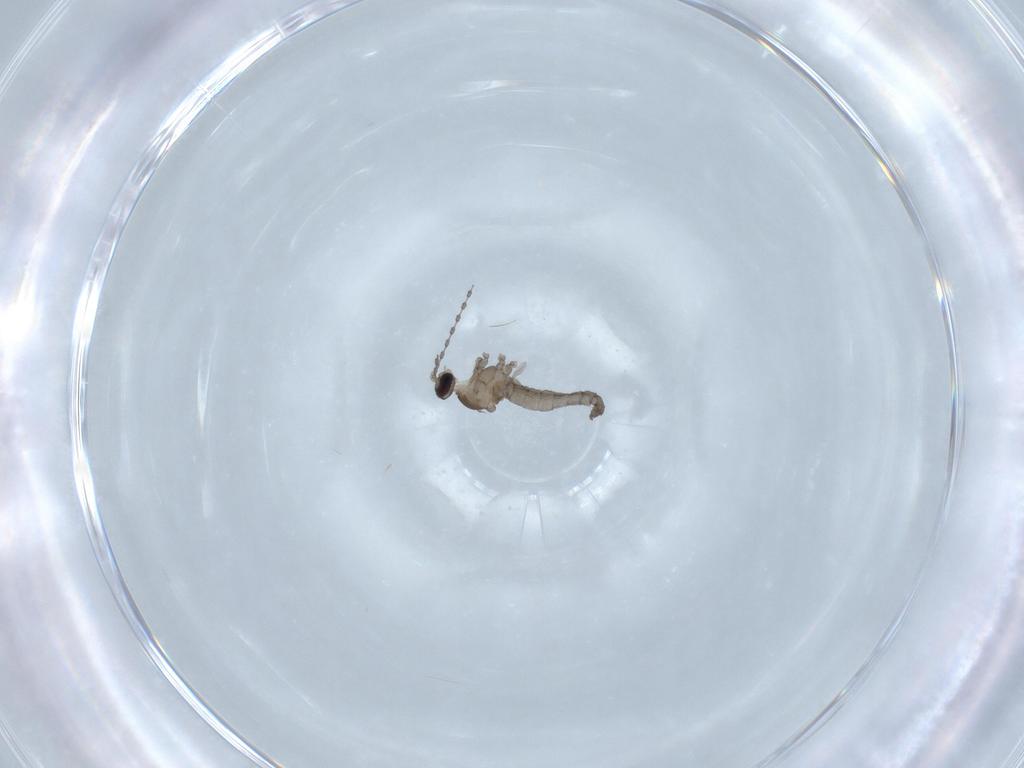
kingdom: Animalia
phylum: Arthropoda
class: Insecta
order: Diptera
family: Cecidomyiidae
